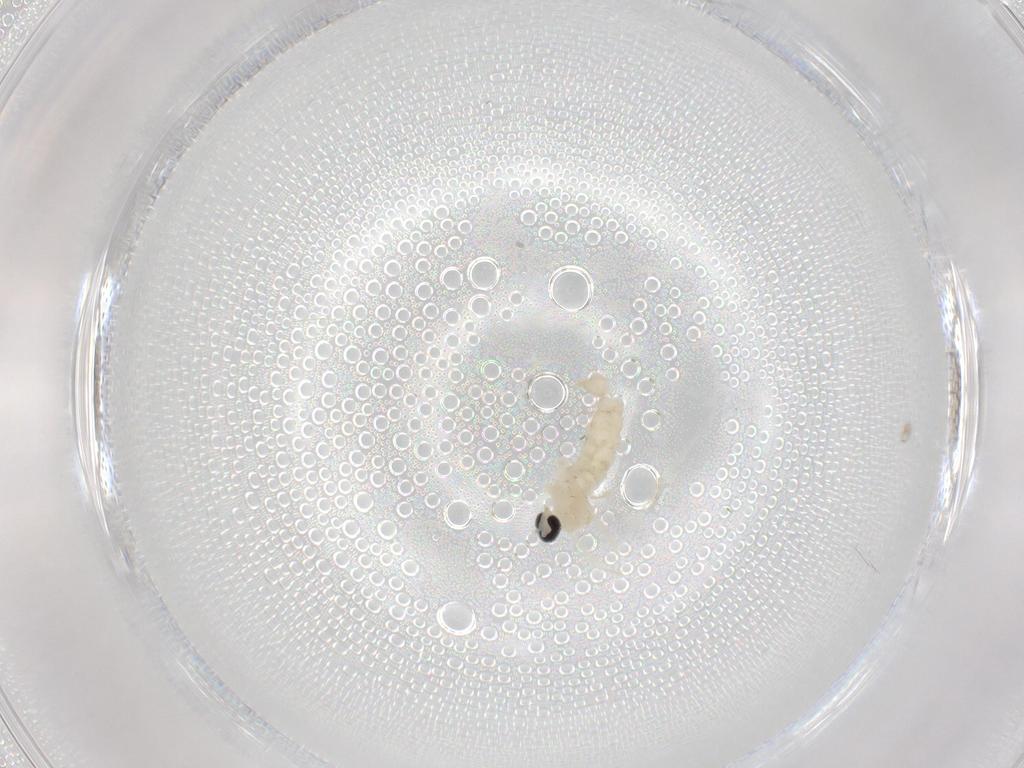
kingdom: Animalia
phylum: Arthropoda
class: Insecta
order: Diptera
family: Cecidomyiidae
